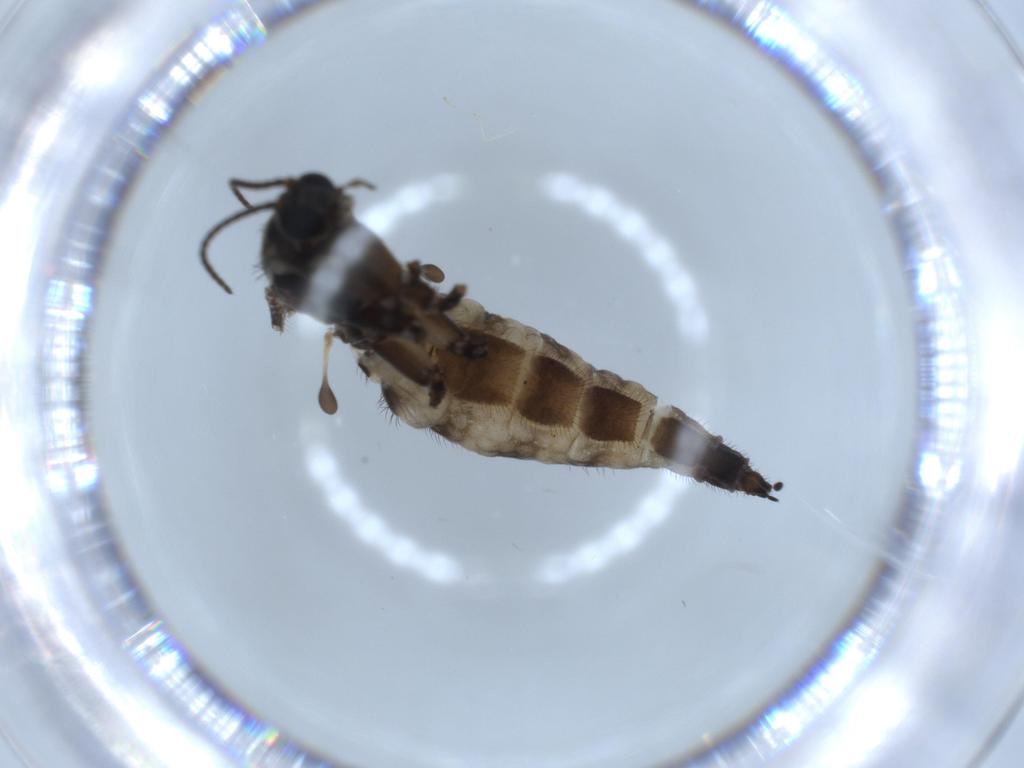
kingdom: Animalia
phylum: Arthropoda
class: Insecta
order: Diptera
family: Sciaridae
